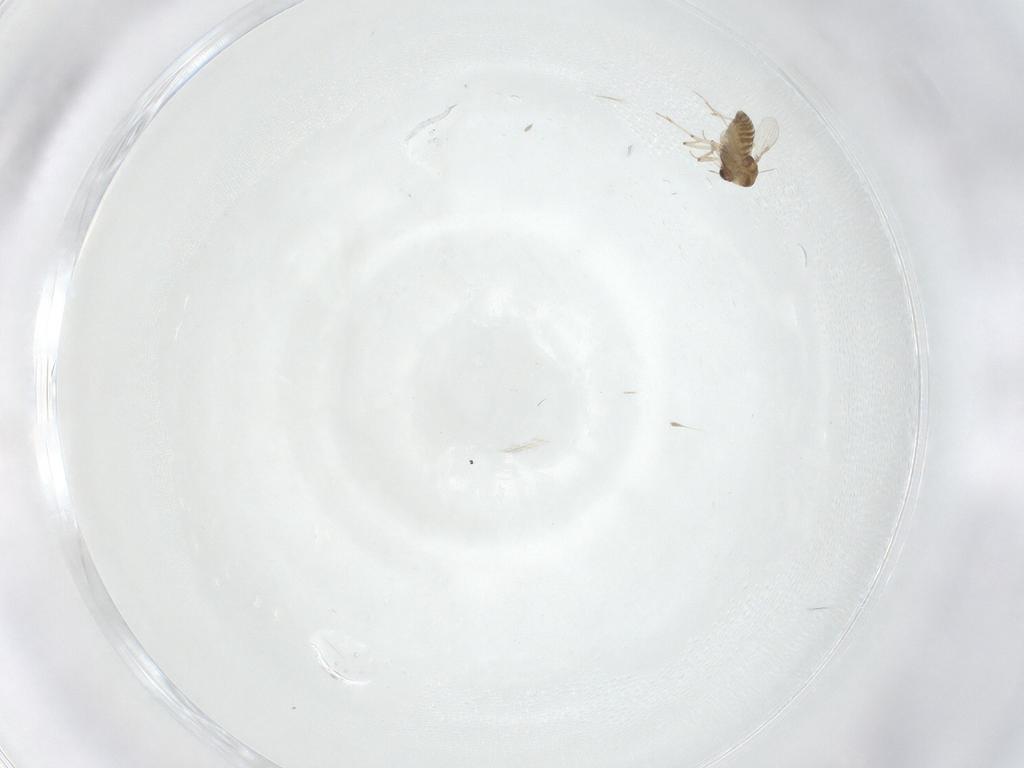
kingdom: Animalia
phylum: Arthropoda
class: Insecta
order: Diptera
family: Chironomidae
